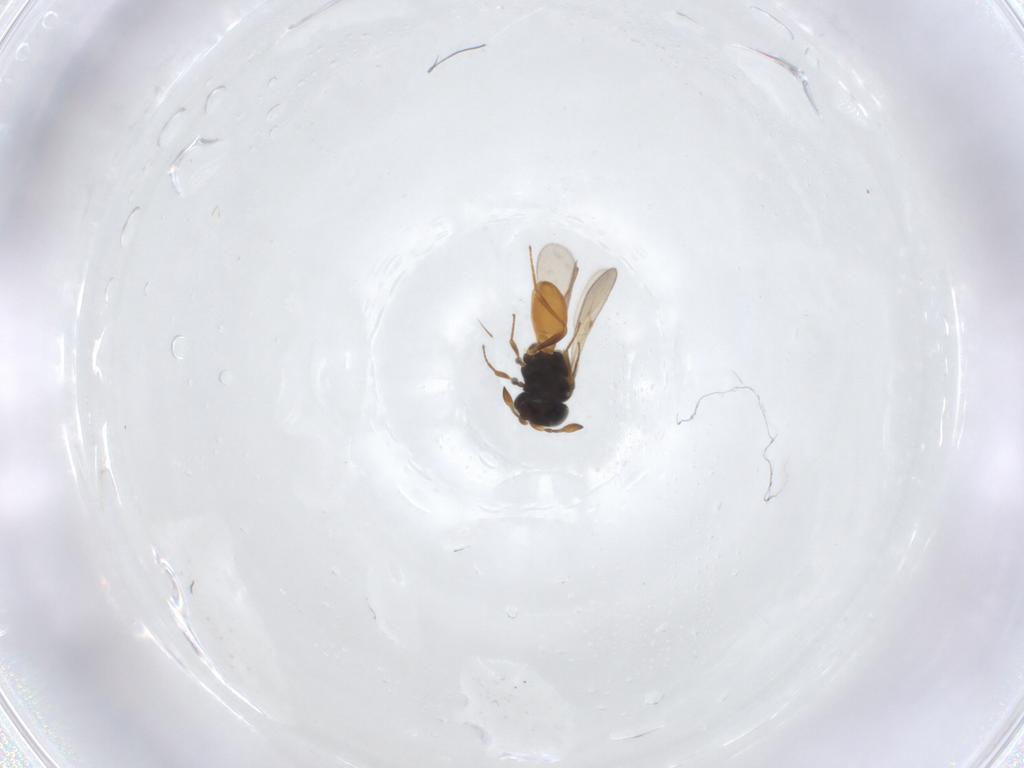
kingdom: Animalia
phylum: Arthropoda
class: Insecta
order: Hymenoptera
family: Scelionidae
